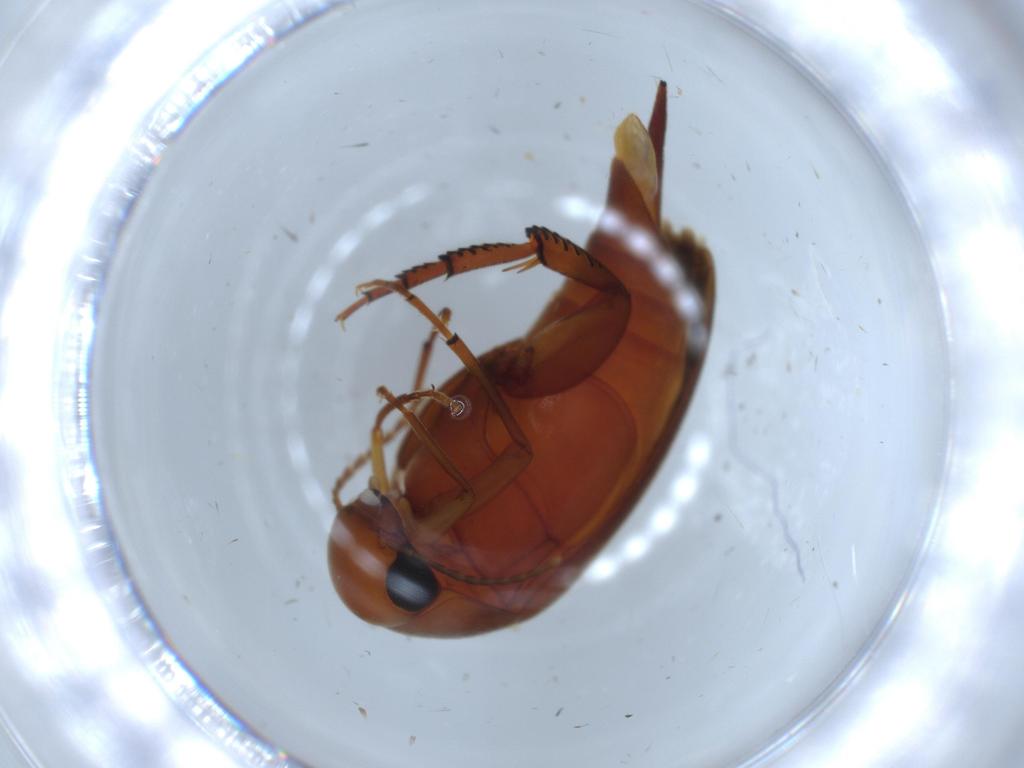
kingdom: Animalia
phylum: Arthropoda
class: Insecta
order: Coleoptera
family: Mordellidae
